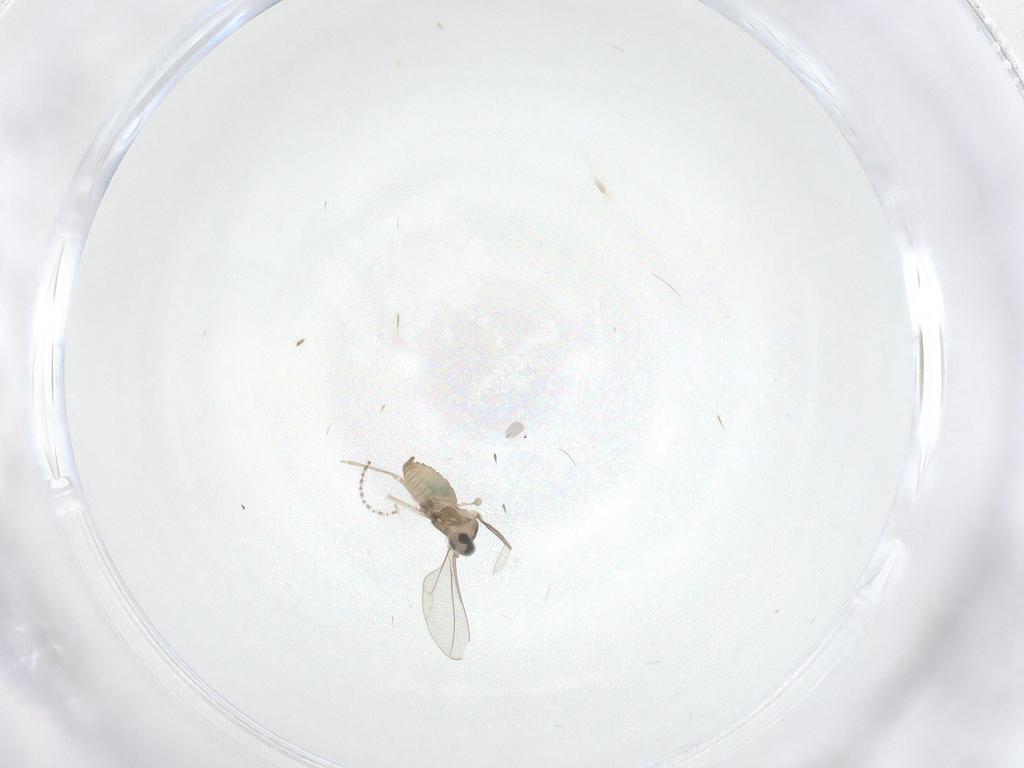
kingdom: Animalia
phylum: Arthropoda
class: Insecta
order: Diptera
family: Cecidomyiidae
